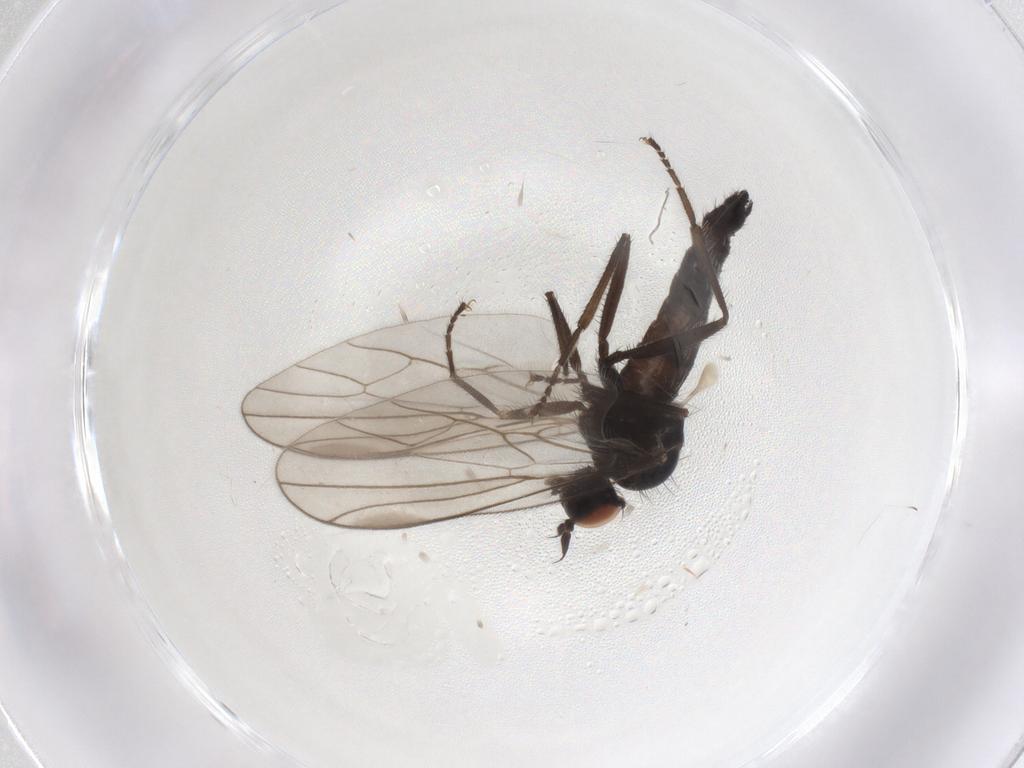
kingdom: Animalia
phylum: Arthropoda
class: Insecta
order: Diptera
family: Hybotidae
